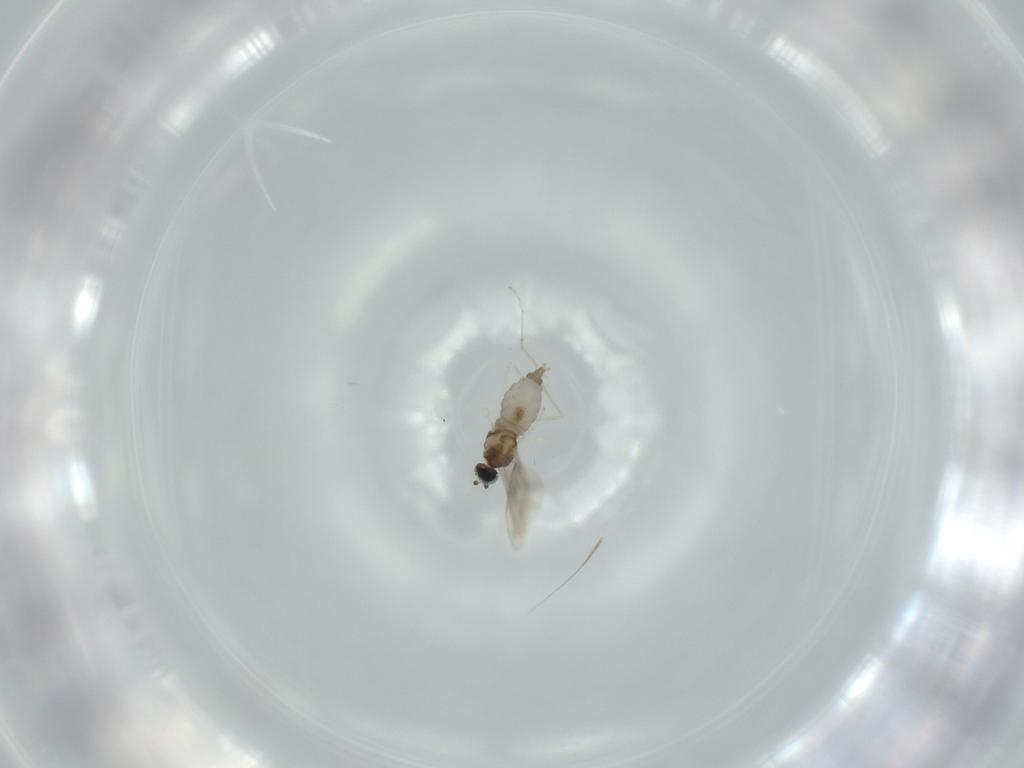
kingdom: Animalia
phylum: Arthropoda
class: Insecta
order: Diptera
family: Cecidomyiidae
